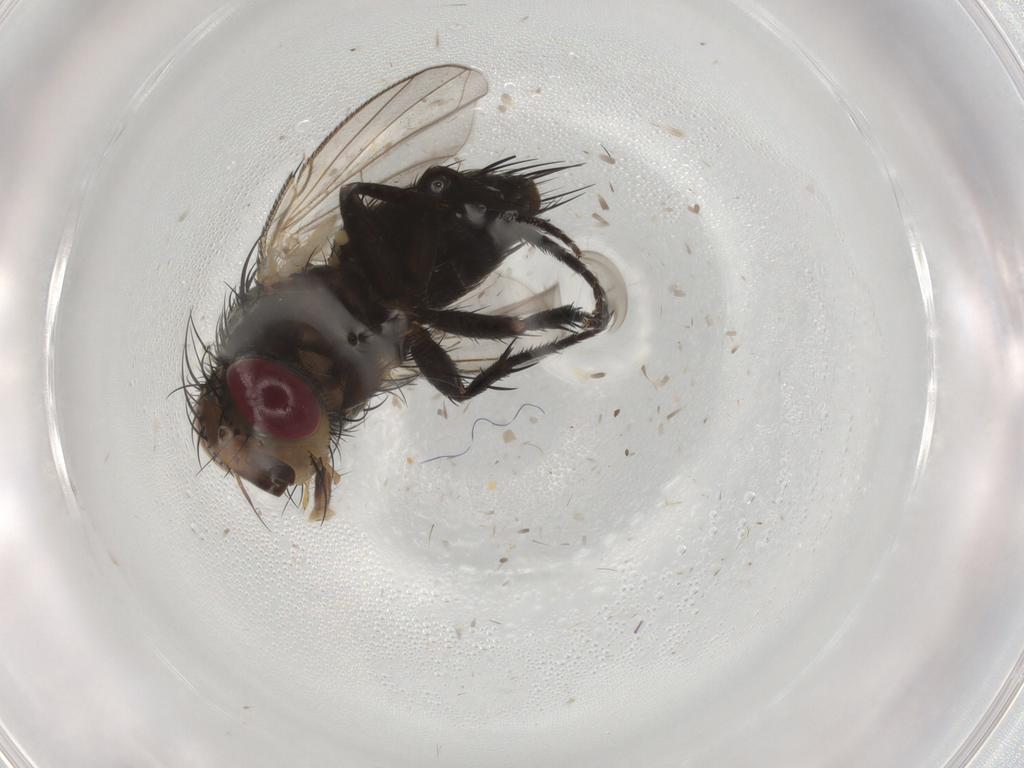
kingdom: Animalia
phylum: Arthropoda
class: Insecta
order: Diptera
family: Tachinidae
